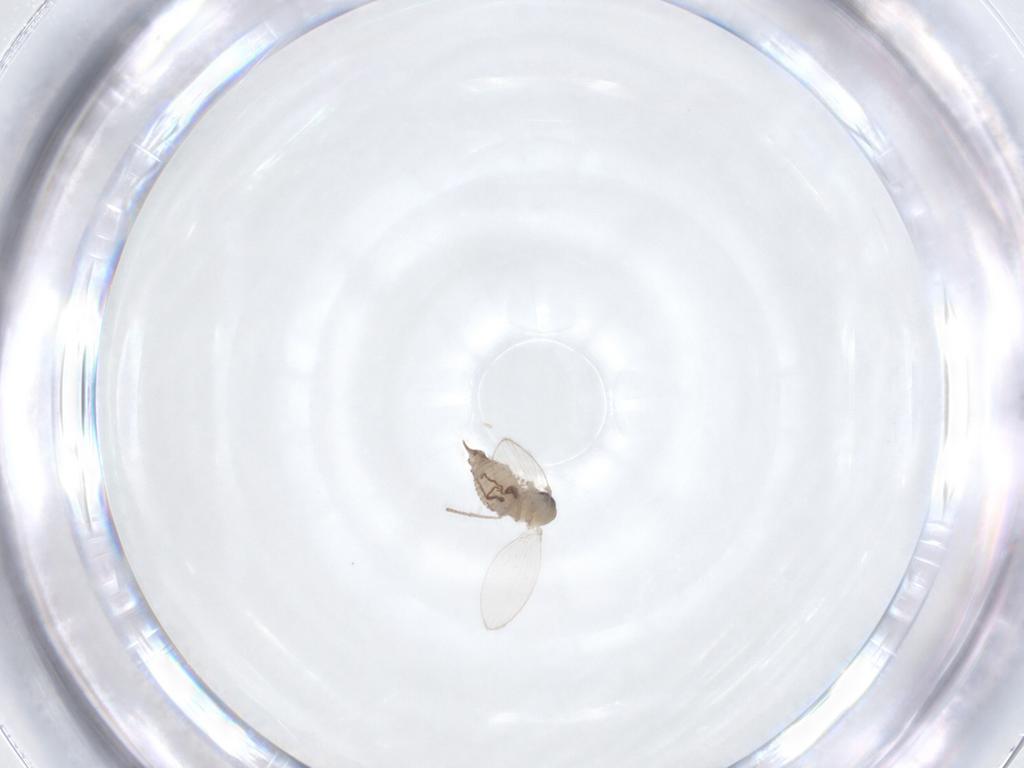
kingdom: Animalia
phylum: Arthropoda
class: Insecta
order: Diptera
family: Psychodidae
